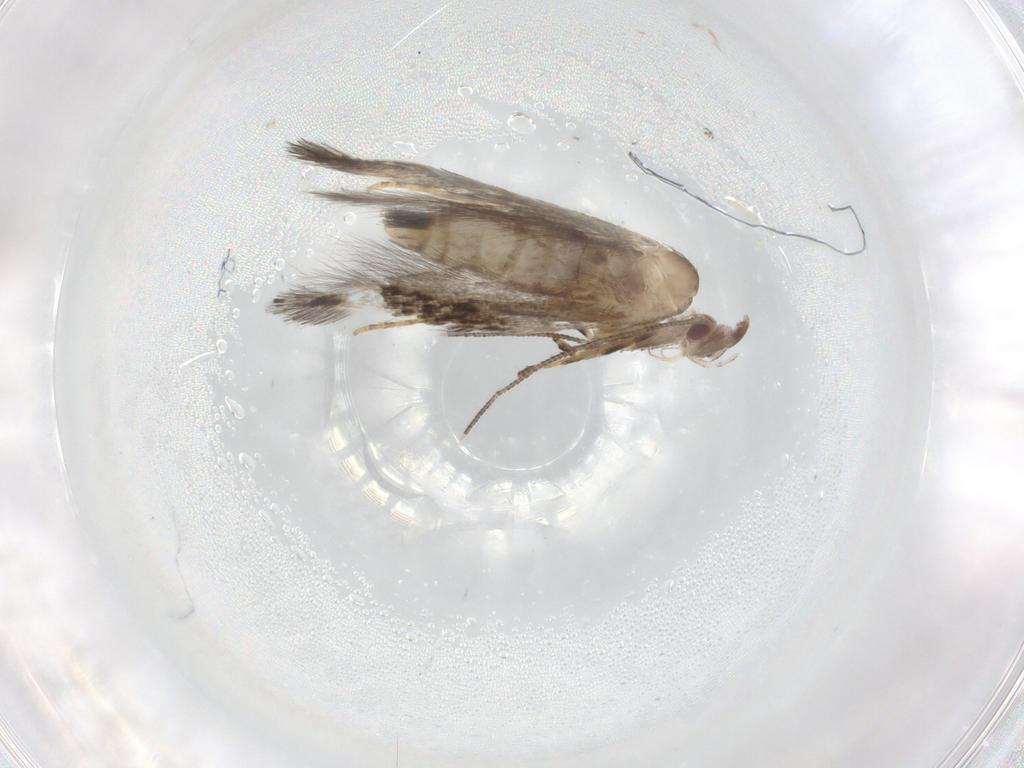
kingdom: Animalia
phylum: Arthropoda
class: Insecta
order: Lepidoptera
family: Elachistidae
